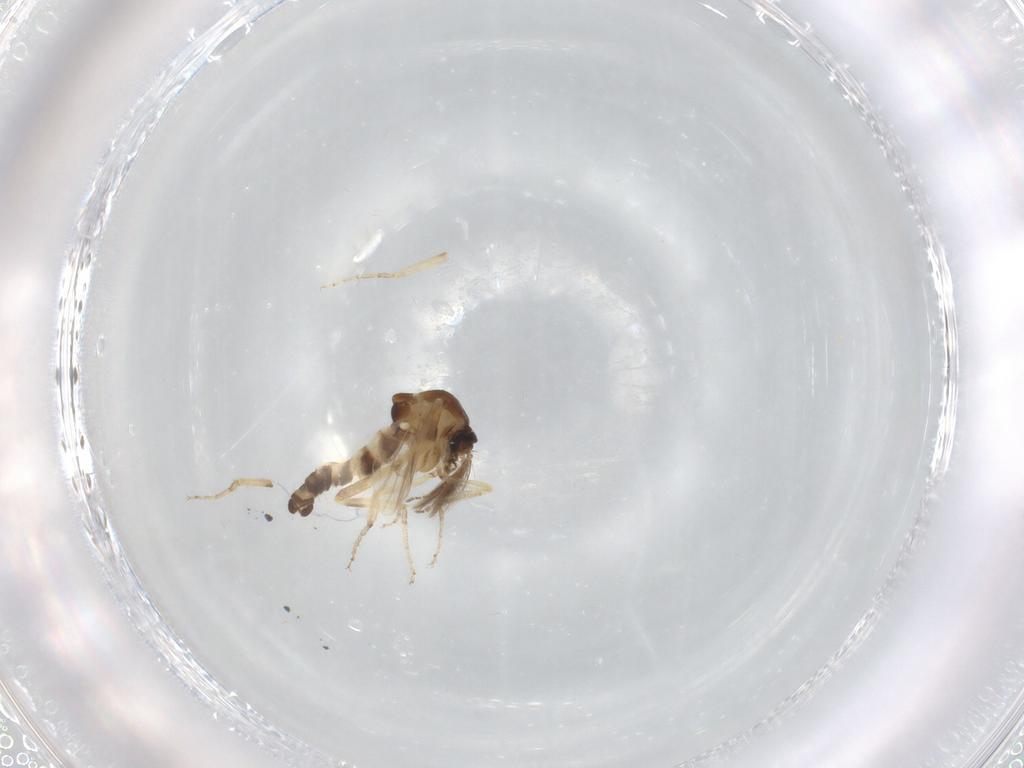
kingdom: Animalia
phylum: Arthropoda
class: Insecta
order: Diptera
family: Ceratopogonidae
